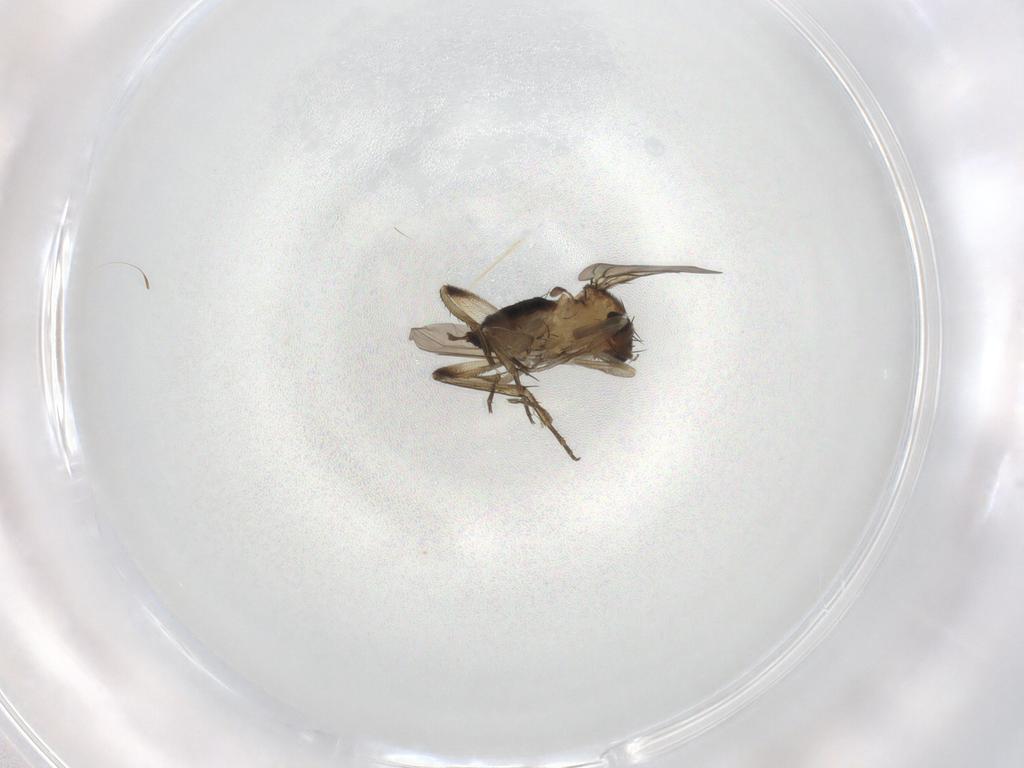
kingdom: Animalia
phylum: Arthropoda
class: Insecta
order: Diptera
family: Phoridae
